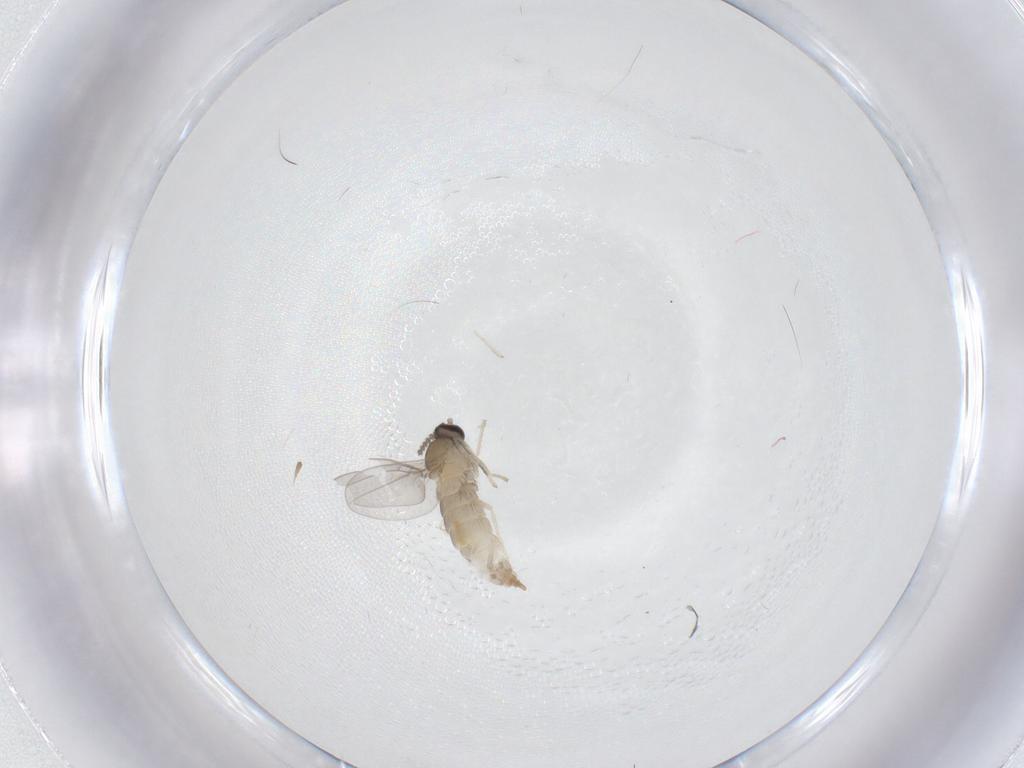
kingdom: Animalia
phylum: Arthropoda
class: Insecta
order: Diptera
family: Cecidomyiidae
